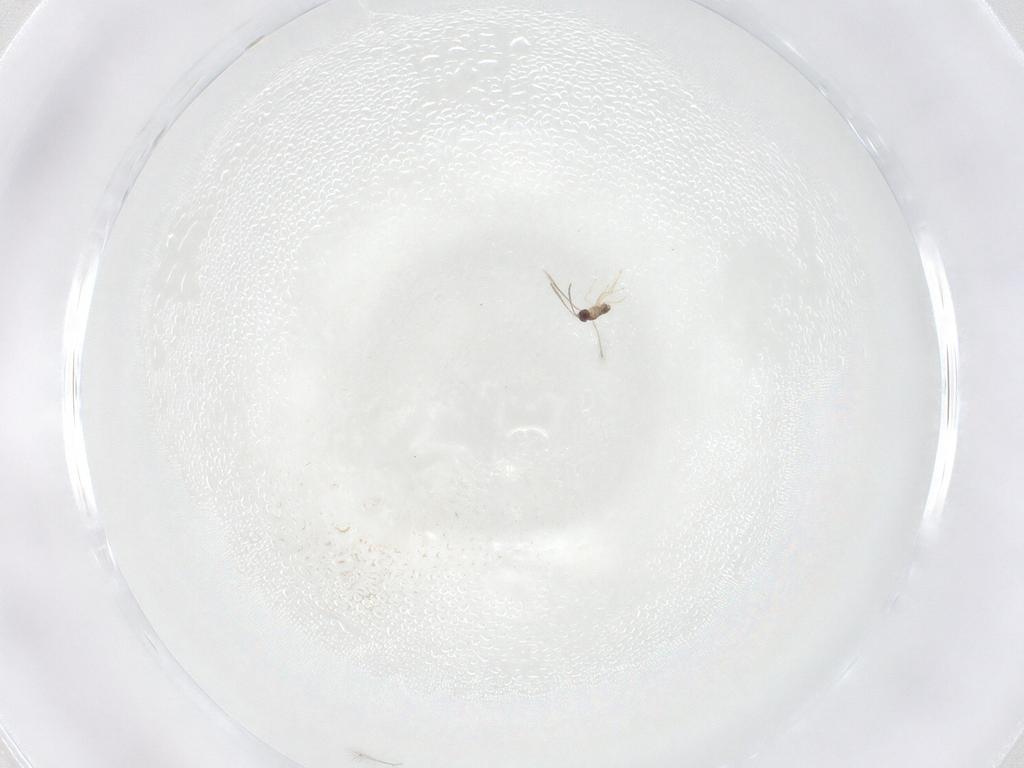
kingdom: Animalia
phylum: Arthropoda
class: Insecta
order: Hymenoptera
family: Mymaridae
